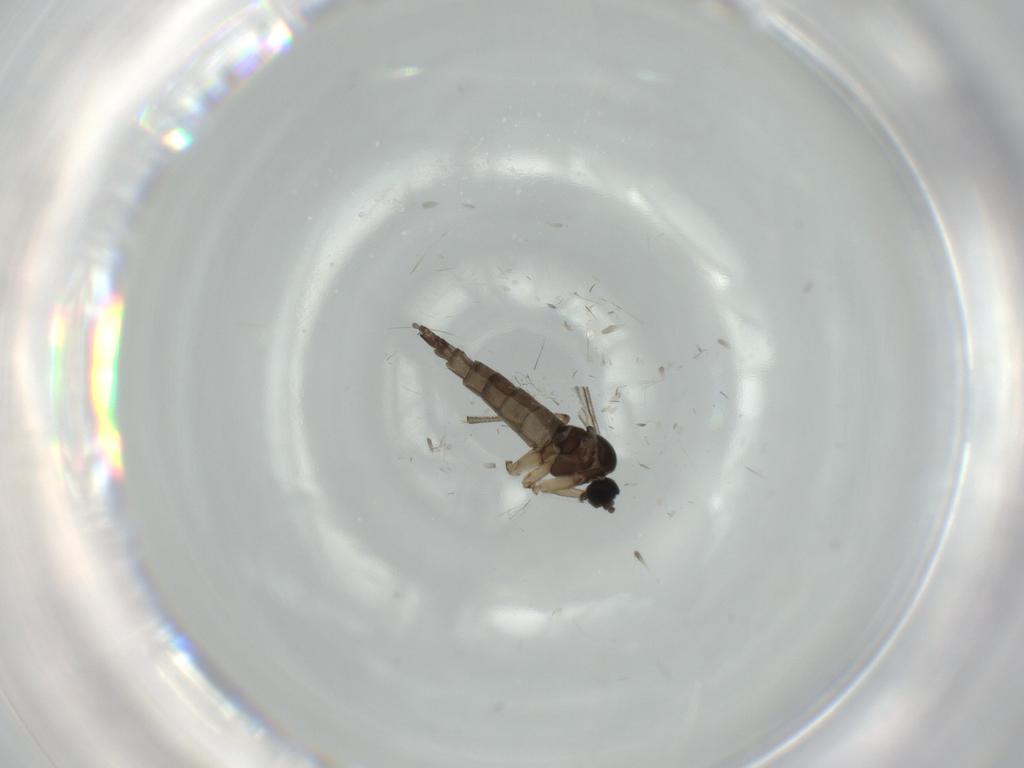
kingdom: Animalia
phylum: Arthropoda
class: Insecta
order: Diptera
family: Sciaridae
